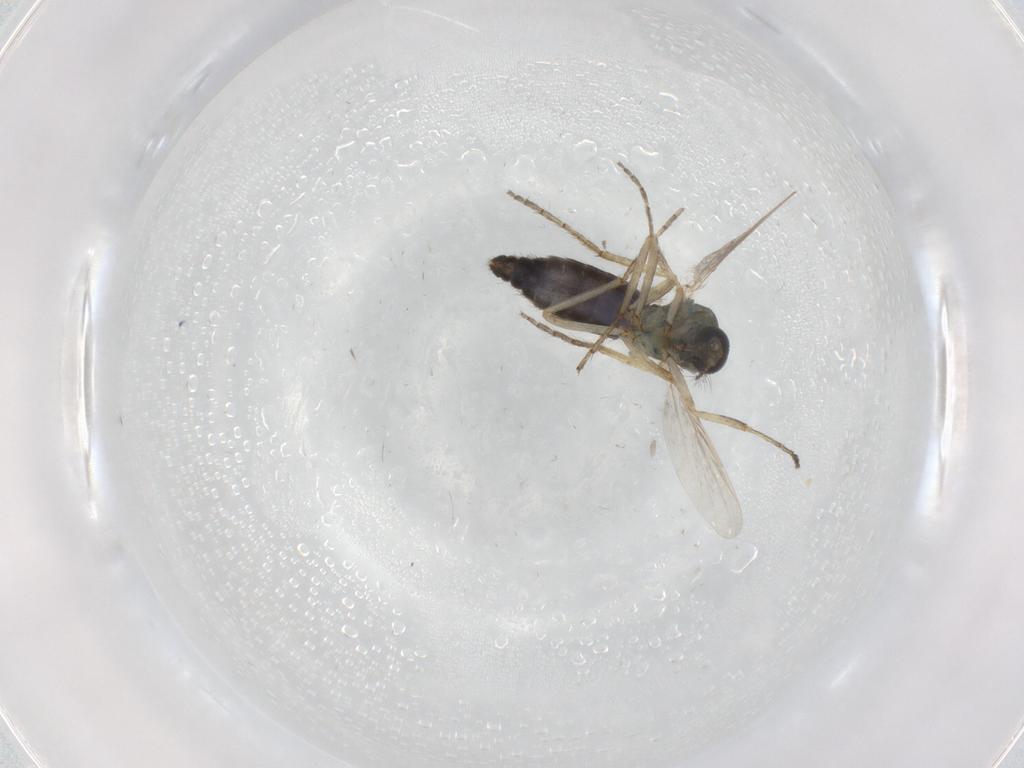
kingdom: Animalia
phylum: Arthropoda
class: Insecta
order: Diptera
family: Ceratopogonidae
